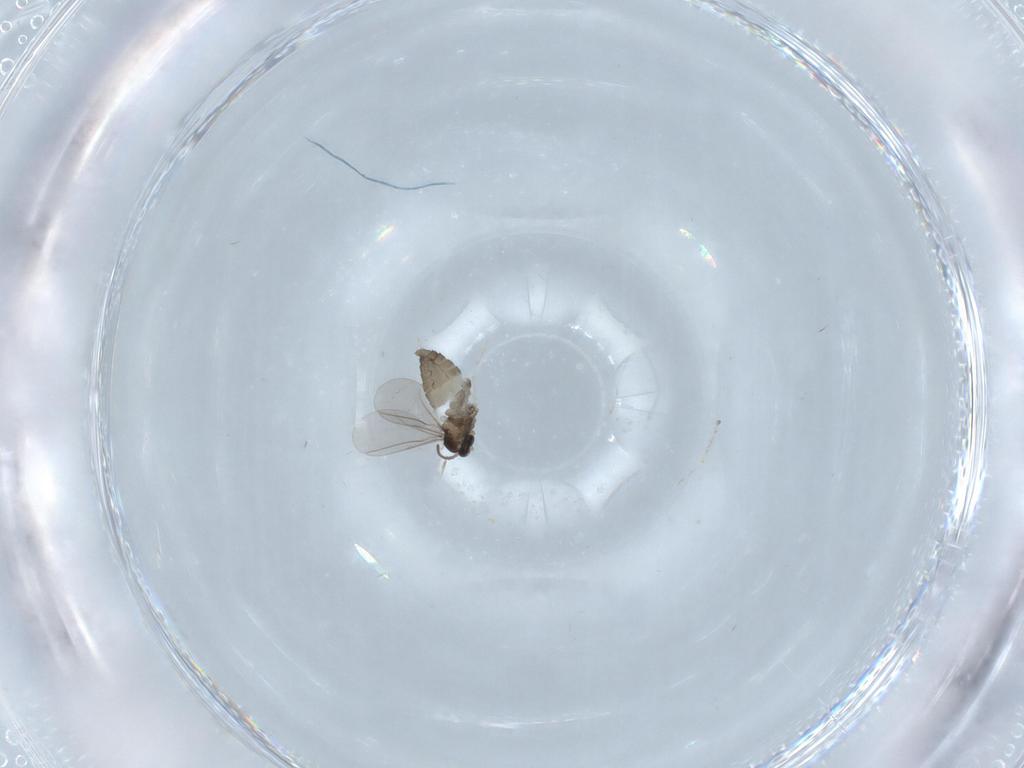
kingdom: Animalia
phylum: Arthropoda
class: Insecta
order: Diptera
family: Cecidomyiidae
